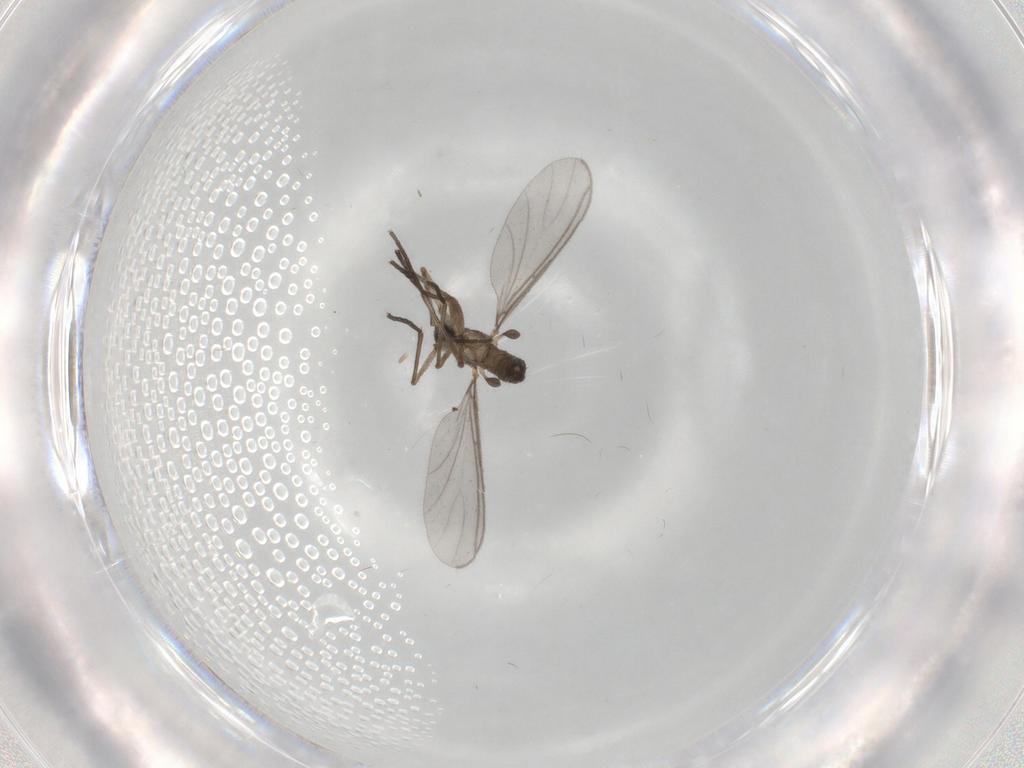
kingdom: Animalia
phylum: Arthropoda
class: Insecta
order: Diptera
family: Sciaridae
